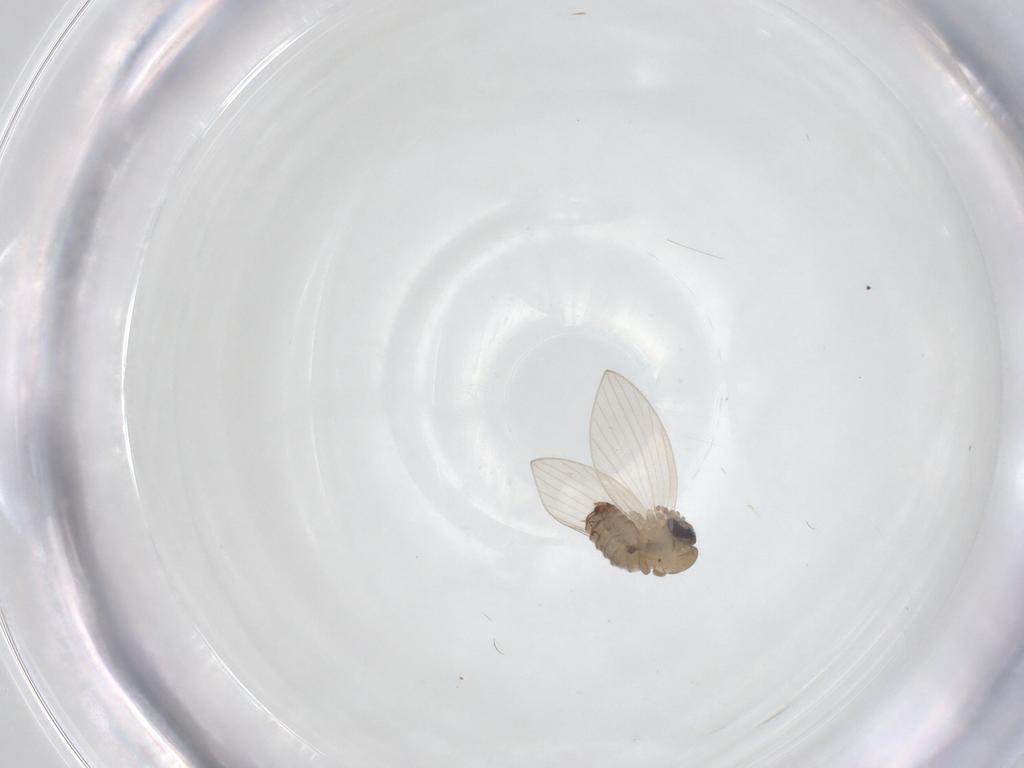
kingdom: Animalia
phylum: Arthropoda
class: Insecta
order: Diptera
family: Psychodidae
